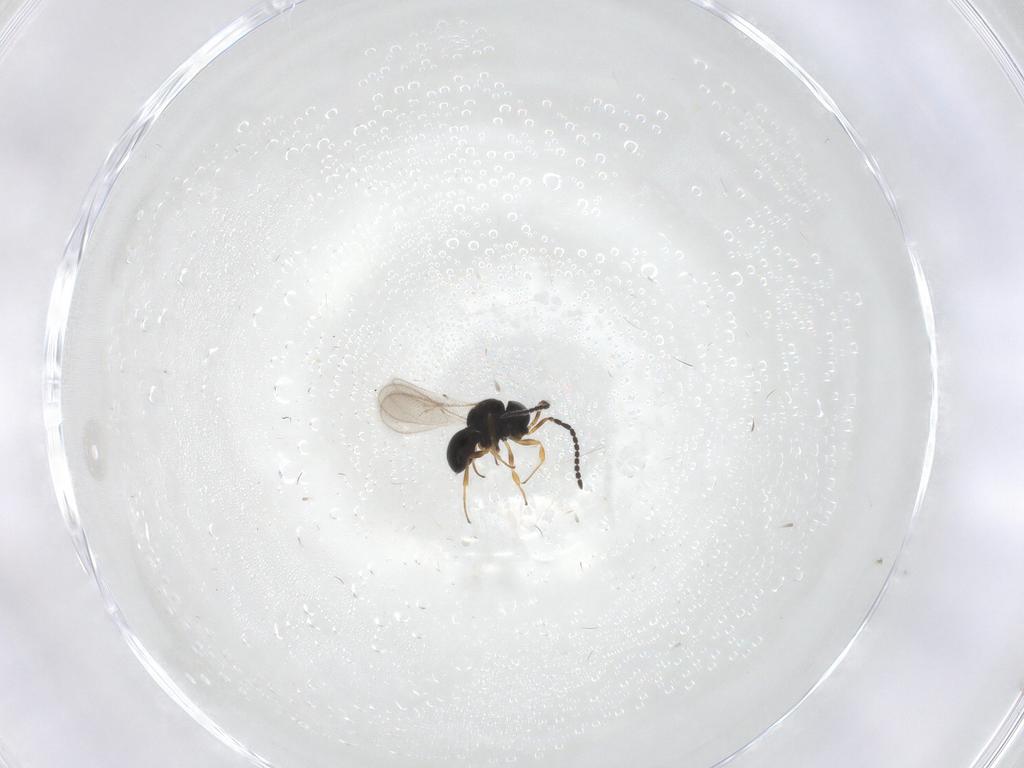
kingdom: Animalia
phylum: Arthropoda
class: Insecta
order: Hymenoptera
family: Scelionidae
